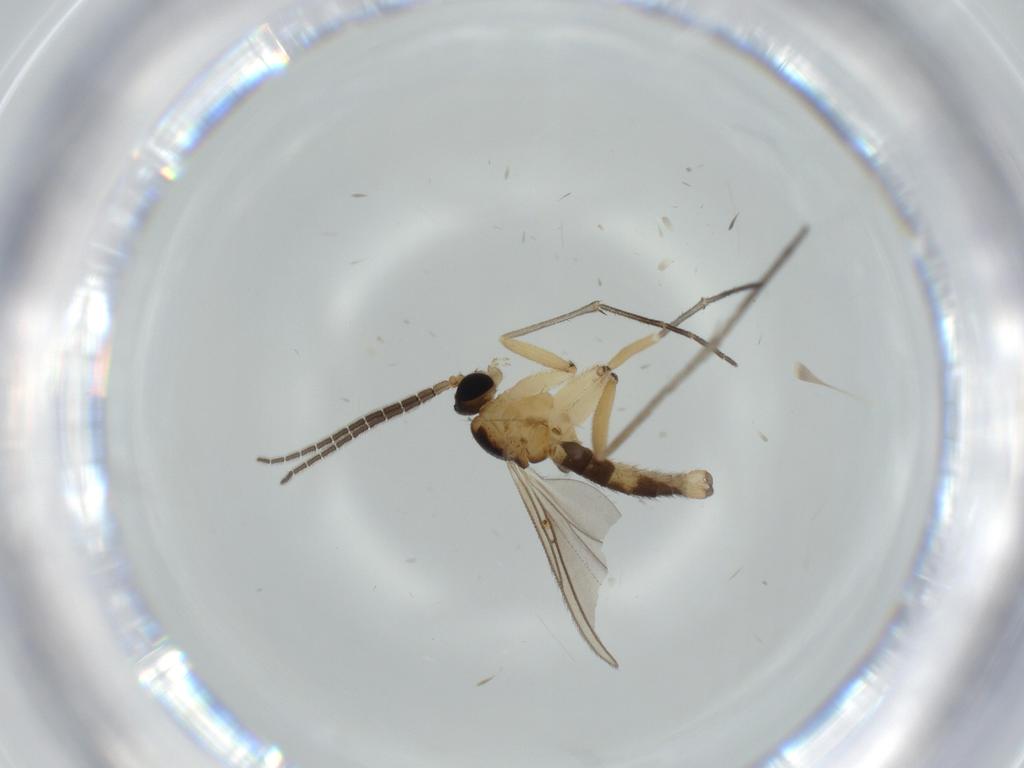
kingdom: Animalia
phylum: Arthropoda
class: Insecta
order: Diptera
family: Sciaridae
